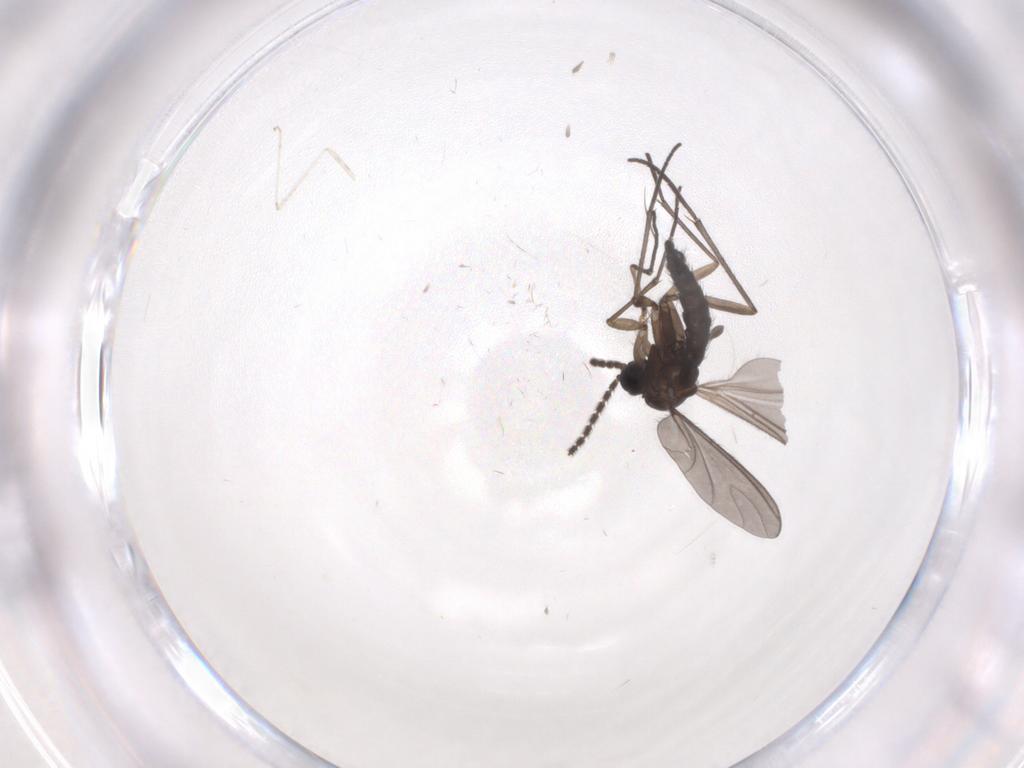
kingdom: Animalia
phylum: Arthropoda
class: Insecta
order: Diptera
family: Sciaridae
